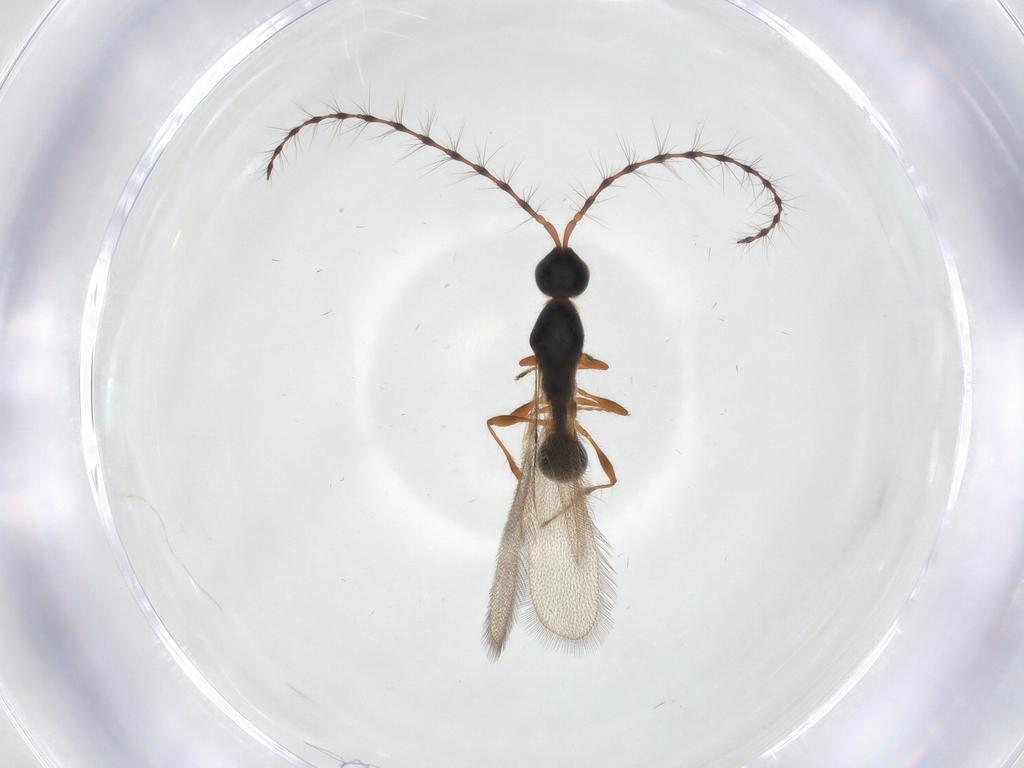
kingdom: Animalia
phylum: Arthropoda
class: Insecta
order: Hymenoptera
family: Diapriidae
